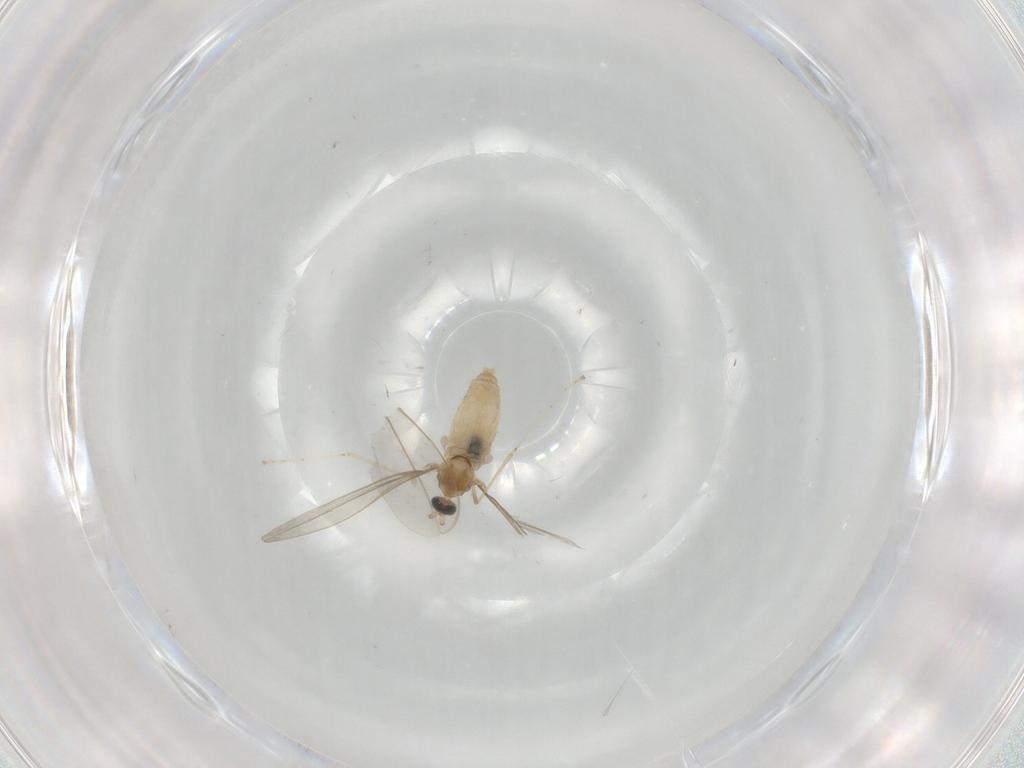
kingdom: Animalia
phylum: Arthropoda
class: Insecta
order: Diptera
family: Cecidomyiidae
